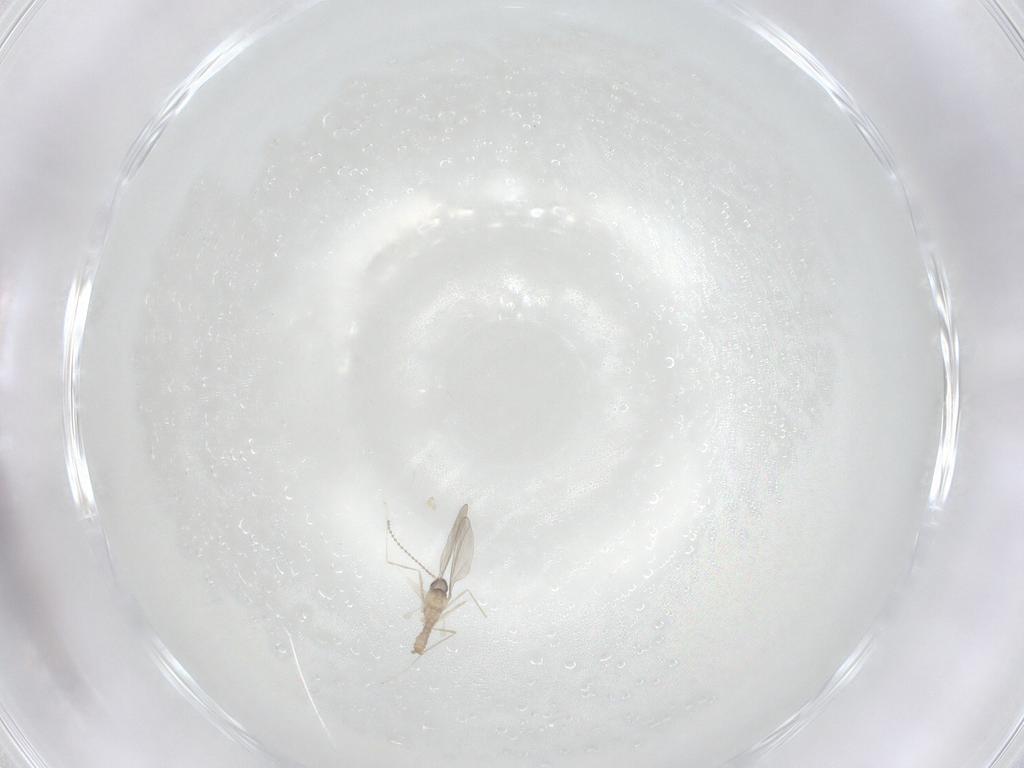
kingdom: Animalia
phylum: Arthropoda
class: Insecta
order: Diptera
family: Cecidomyiidae
